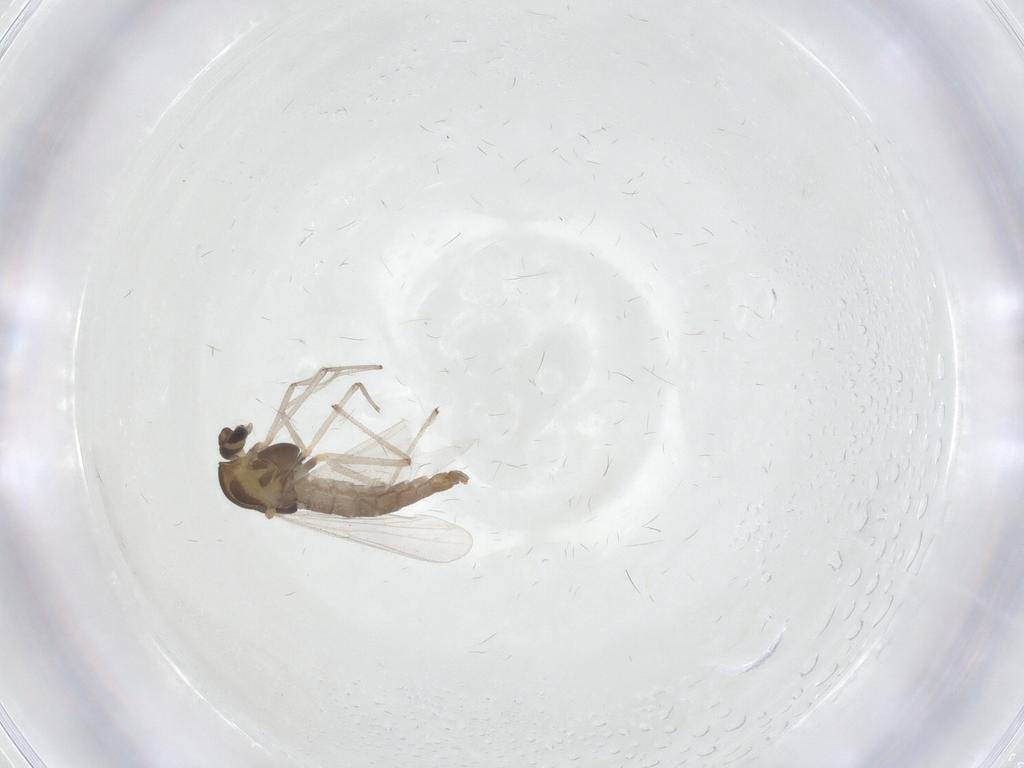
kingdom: Animalia
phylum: Arthropoda
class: Insecta
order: Diptera
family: Chironomidae
